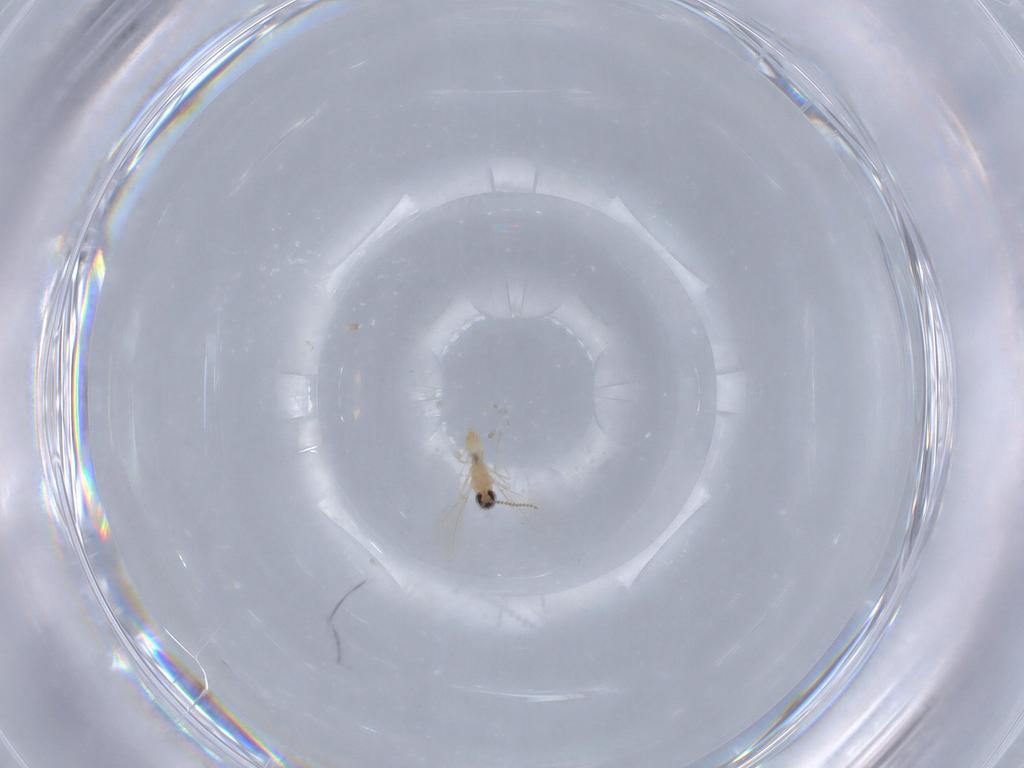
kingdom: Animalia
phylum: Arthropoda
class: Insecta
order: Diptera
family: Cecidomyiidae
